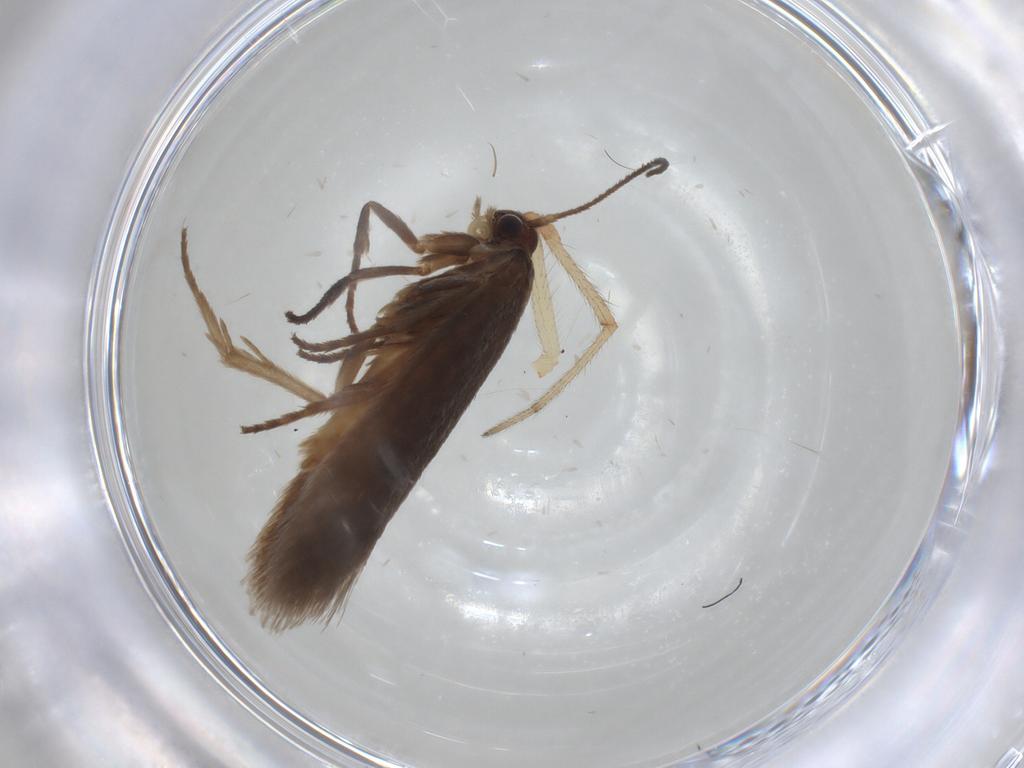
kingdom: Animalia
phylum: Arthropoda
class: Insecta
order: Lepidoptera
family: Limacodidae
